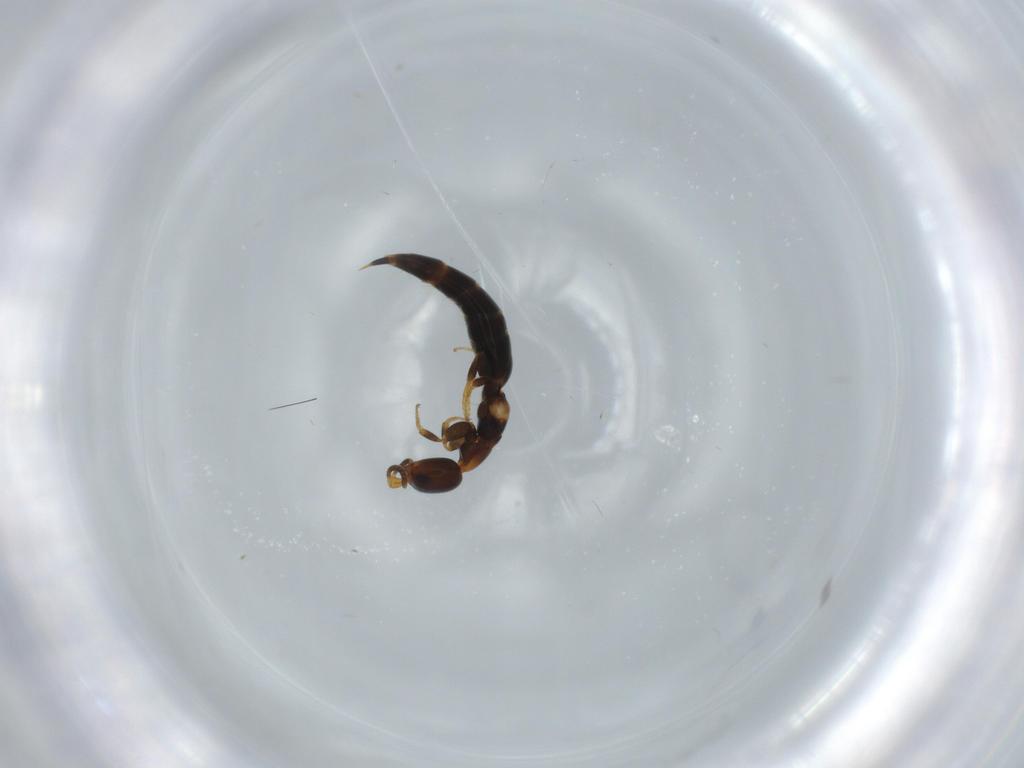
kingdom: Animalia
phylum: Arthropoda
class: Insecta
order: Hymenoptera
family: Bethylidae
